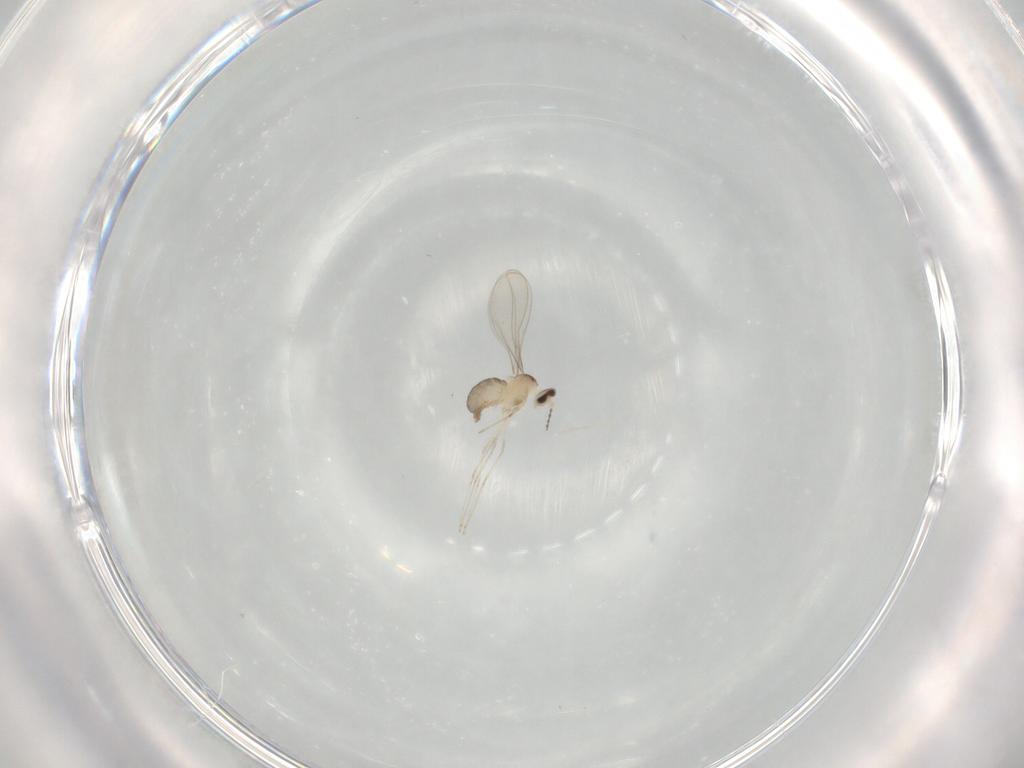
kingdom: Animalia
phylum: Arthropoda
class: Insecta
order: Diptera
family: Cecidomyiidae
